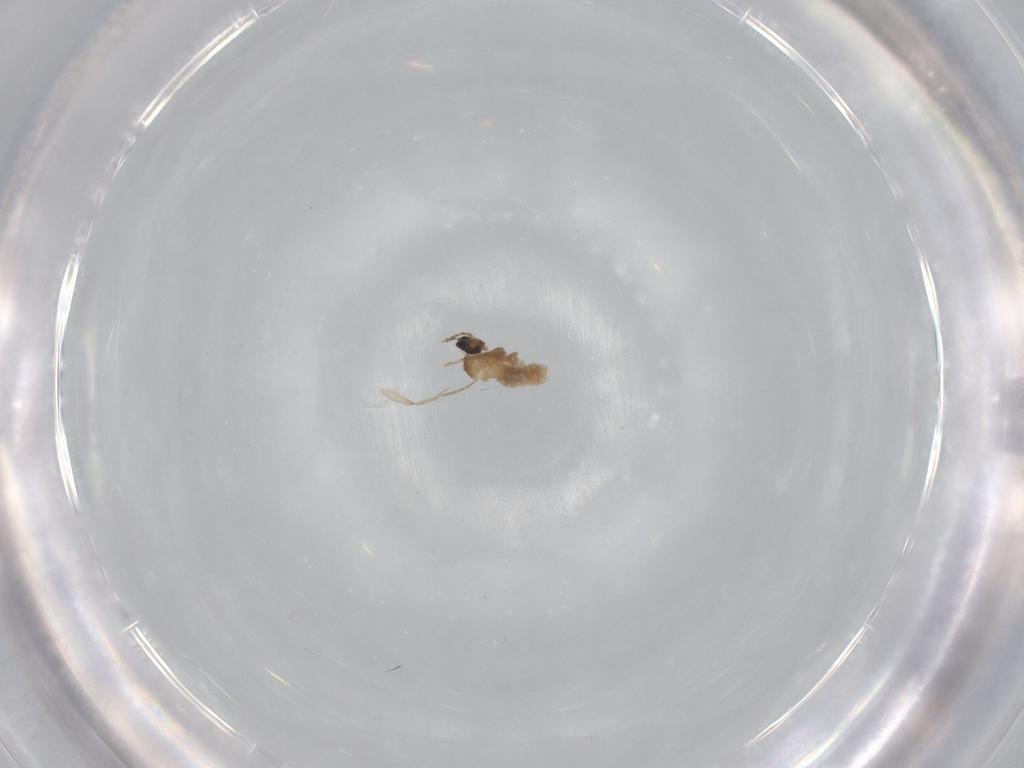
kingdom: Animalia
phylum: Arthropoda
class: Insecta
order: Diptera
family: Cecidomyiidae
